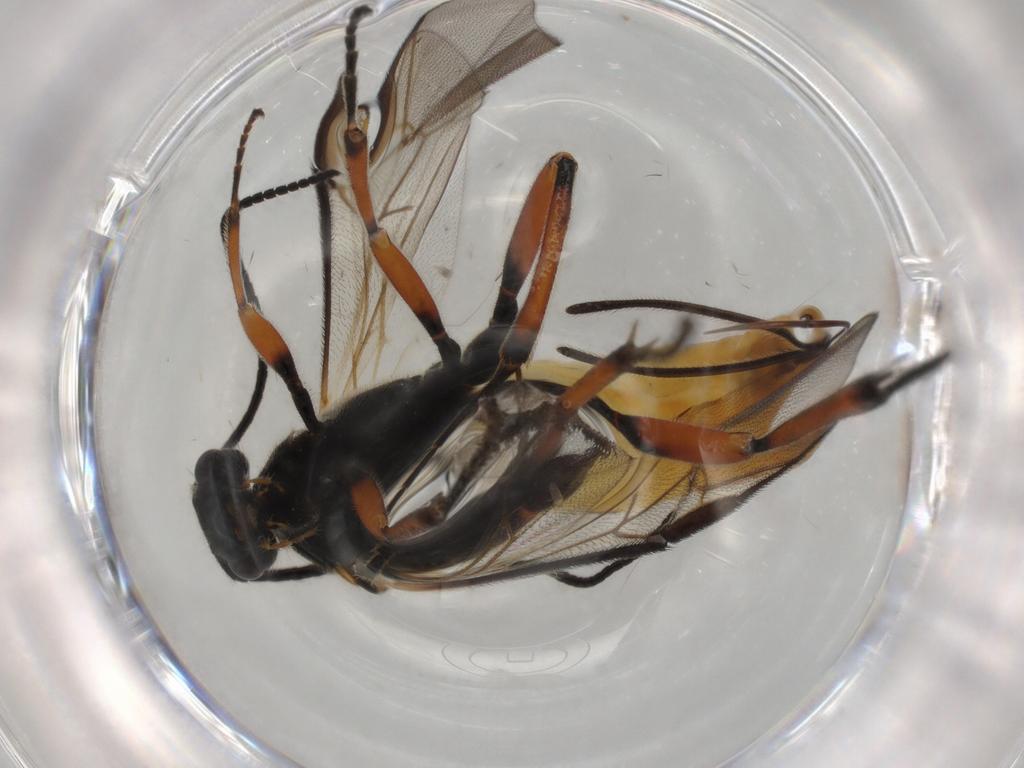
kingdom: Animalia
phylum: Arthropoda
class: Insecta
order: Hymenoptera
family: Braconidae
